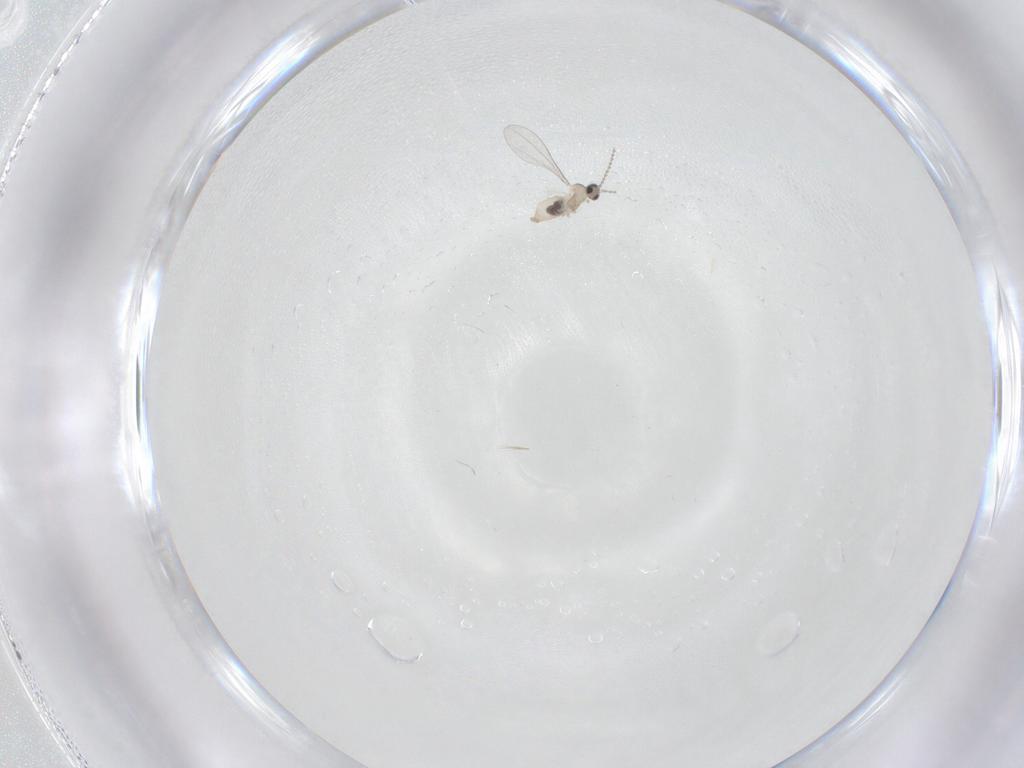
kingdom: Animalia
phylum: Arthropoda
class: Insecta
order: Diptera
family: Cecidomyiidae
